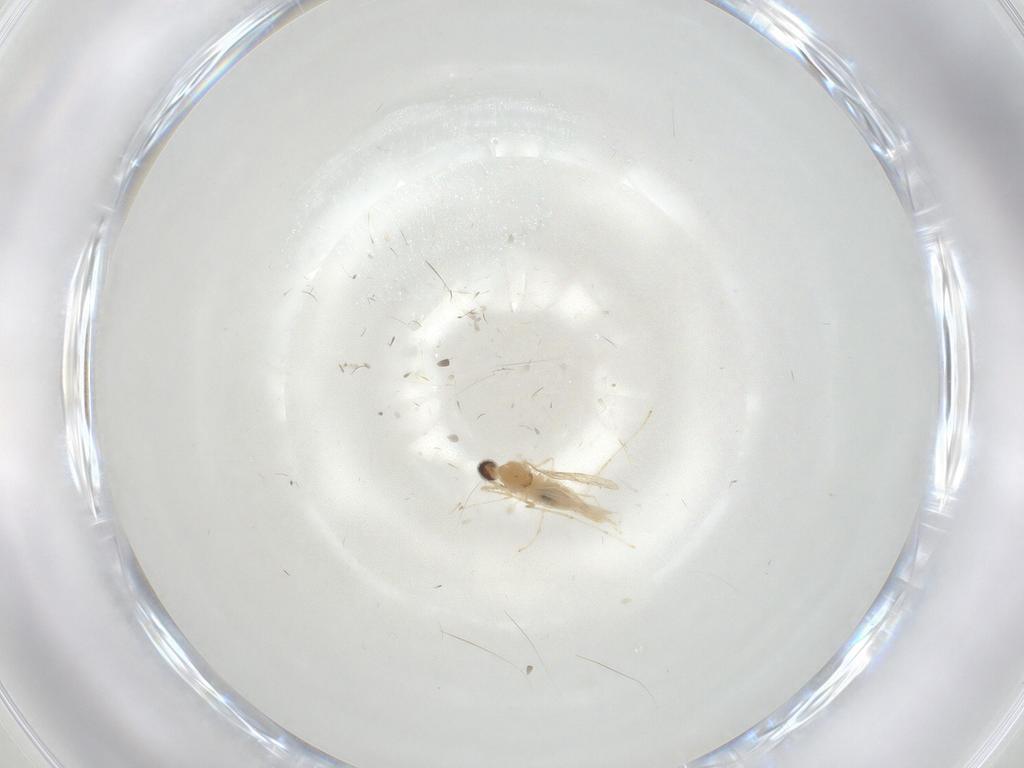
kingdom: Animalia
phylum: Arthropoda
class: Insecta
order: Diptera
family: Cecidomyiidae
